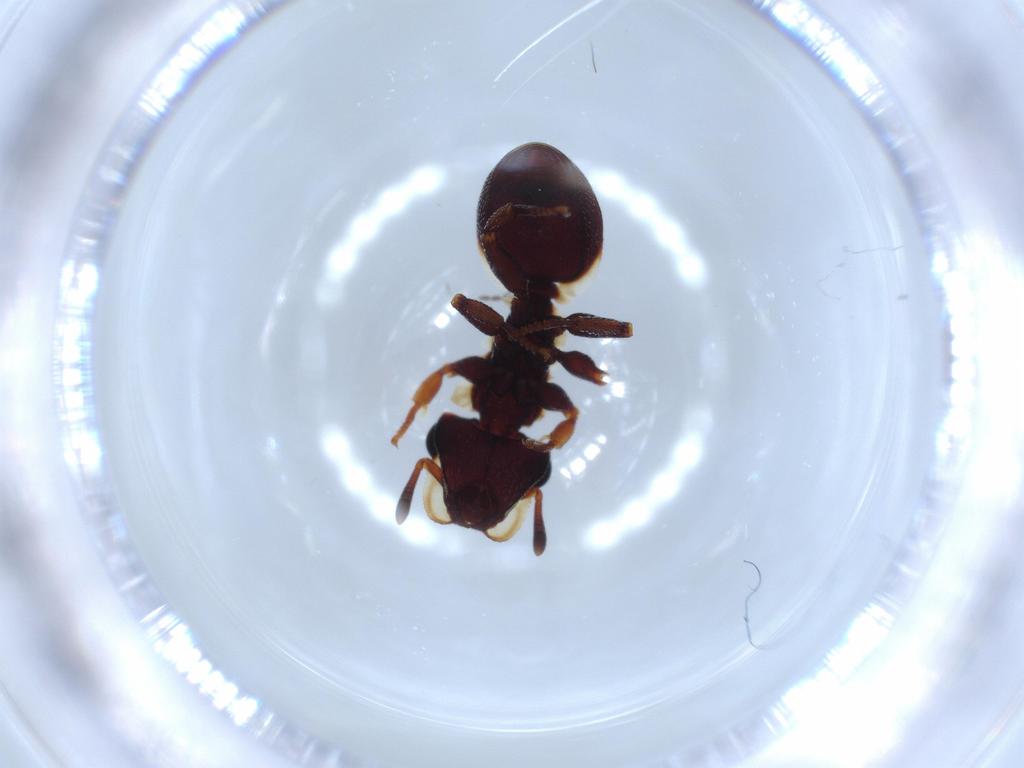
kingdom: Animalia
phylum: Arthropoda
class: Insecta
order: Hymenoptera
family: Formicidae
